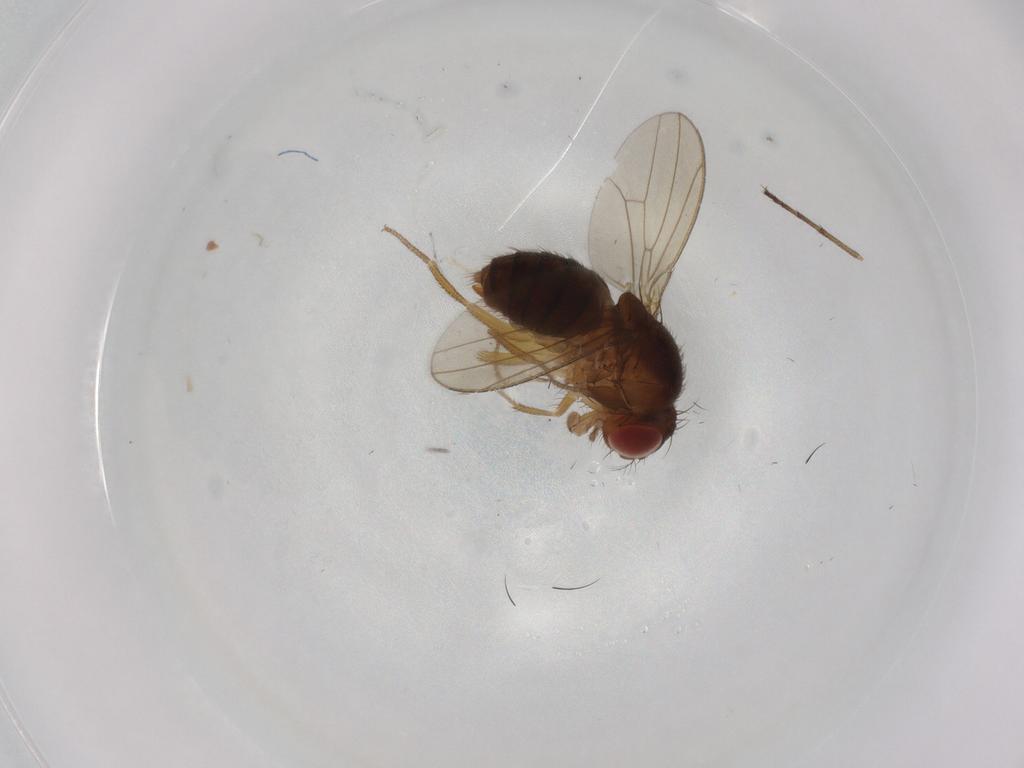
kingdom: Animalia
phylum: Arthropoda
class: Insecta
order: Diptera
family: Drosophilidae
